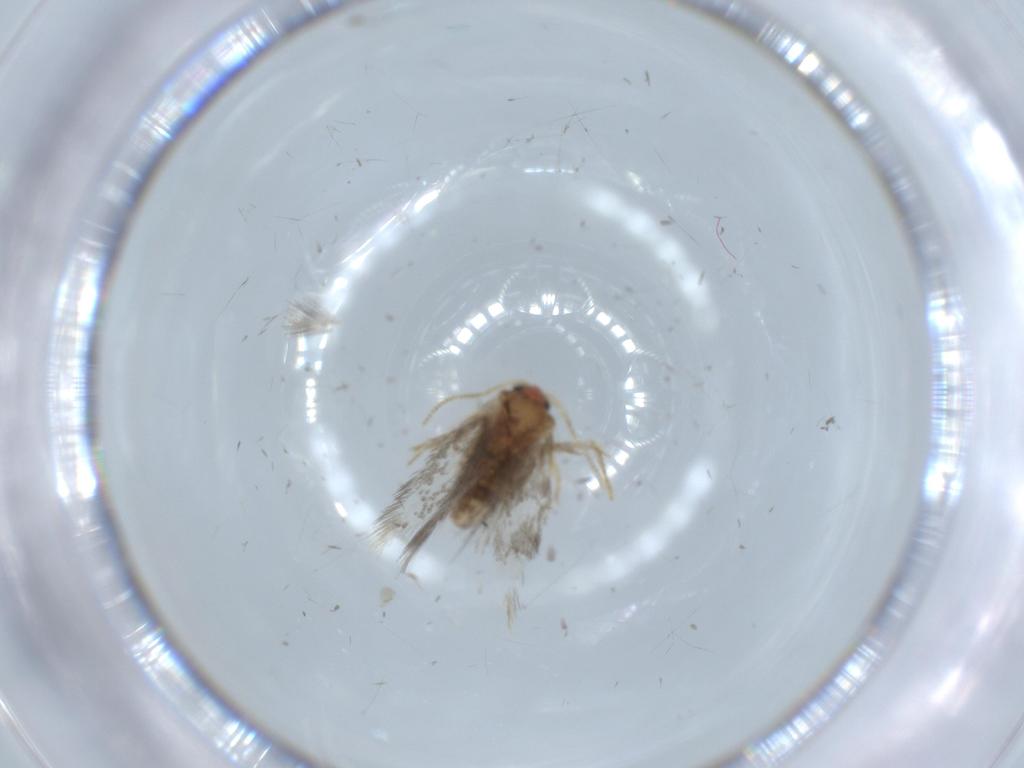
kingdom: Animalia
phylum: Arthropoda
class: Insecta
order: Lepidoptera
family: Nepticulidae
